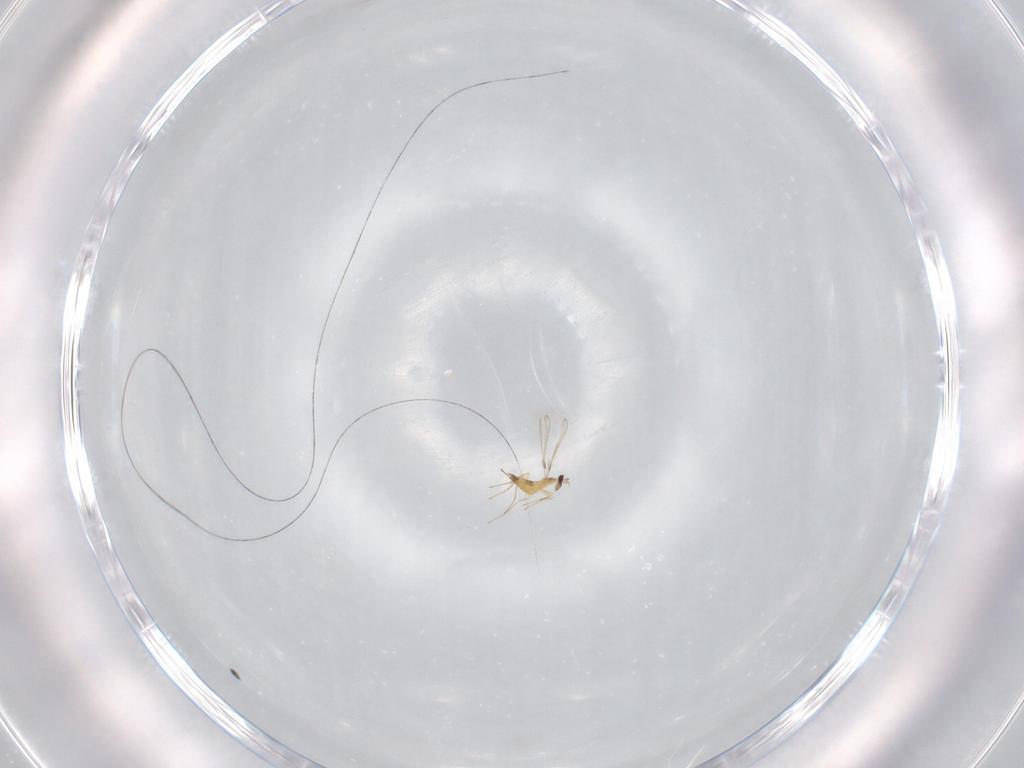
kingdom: Animalia
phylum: Arthropoda
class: Insecta
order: Hymenoptera
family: Mymaridae
